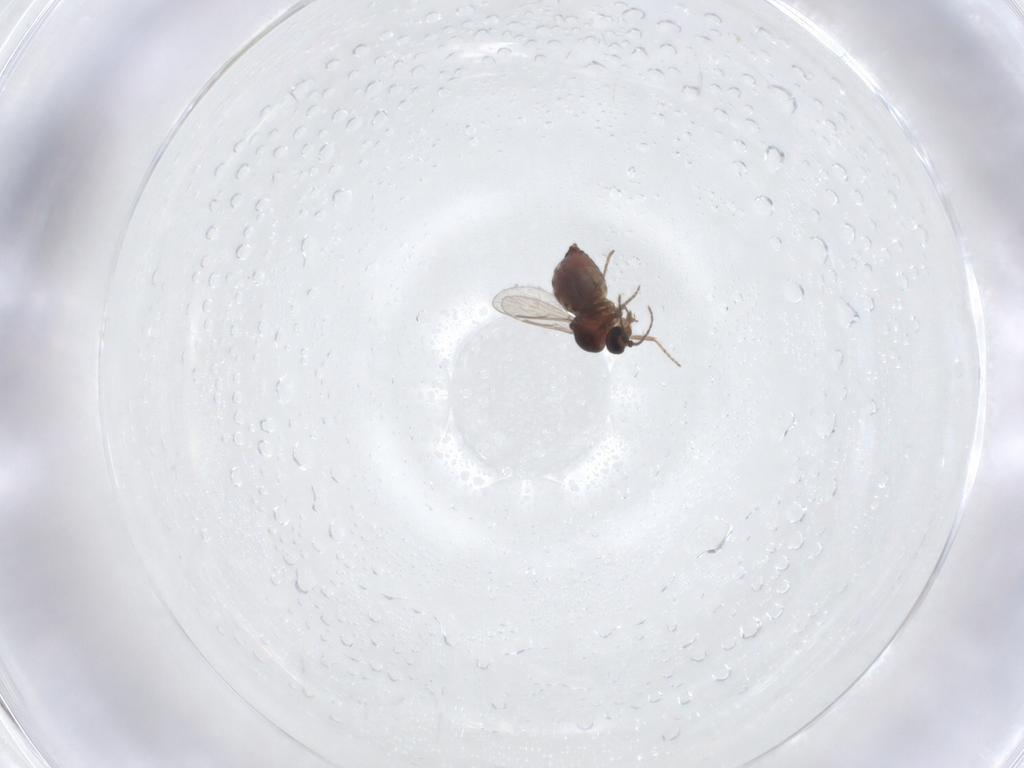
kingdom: Animalia
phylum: Arthropoda
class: Insecta
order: Diptera
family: Ceratopogonidae
